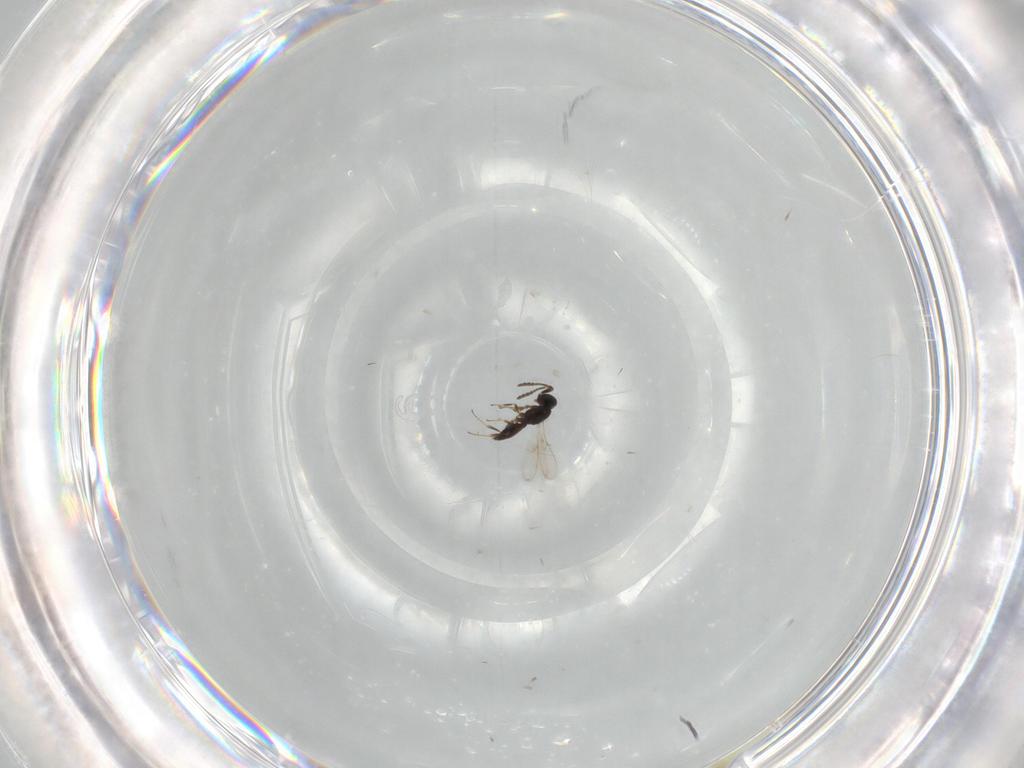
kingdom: Animalia
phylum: Arthropoda
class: Insecta
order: Hymenoptera
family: Scelionidae
